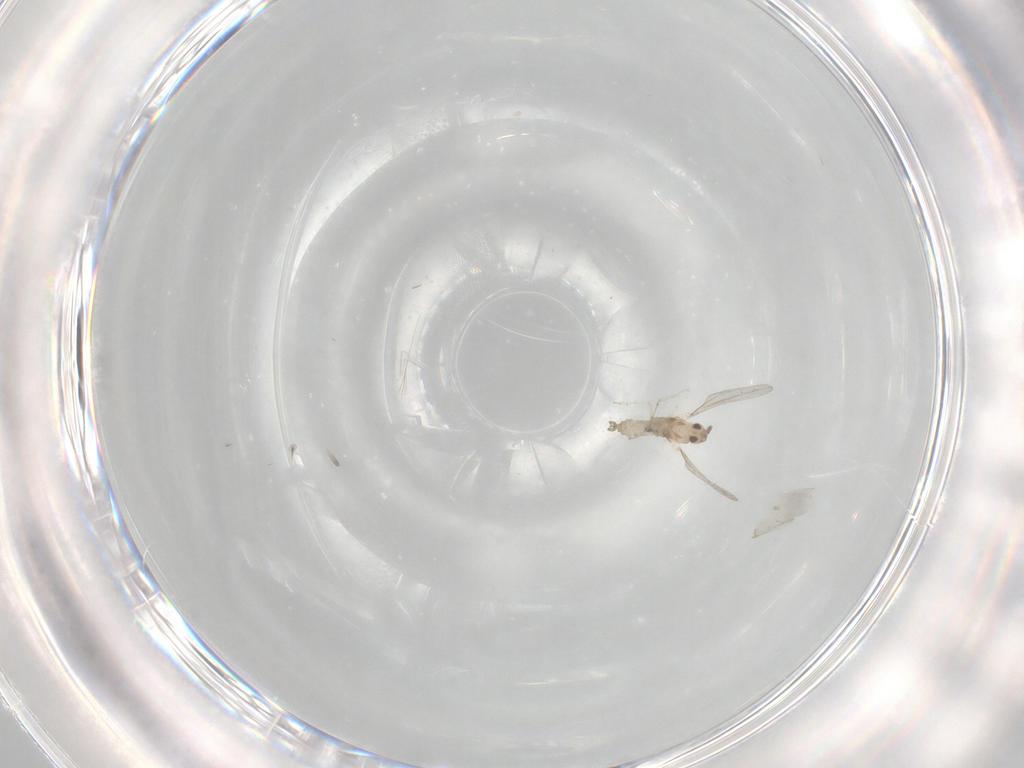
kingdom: Animalia
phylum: Arthropoda
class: Insecta
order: Diptera
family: Cecidomyiidae
